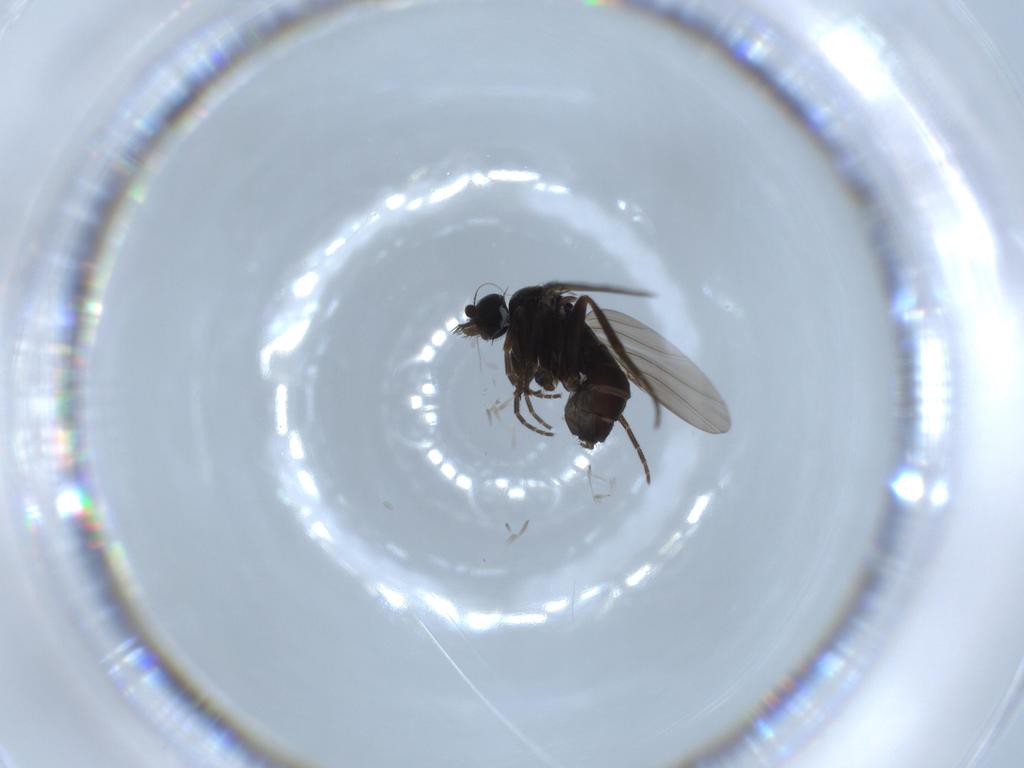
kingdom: Animalia
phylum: Arthropoda
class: Insecta
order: Diptera
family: Phoridae
